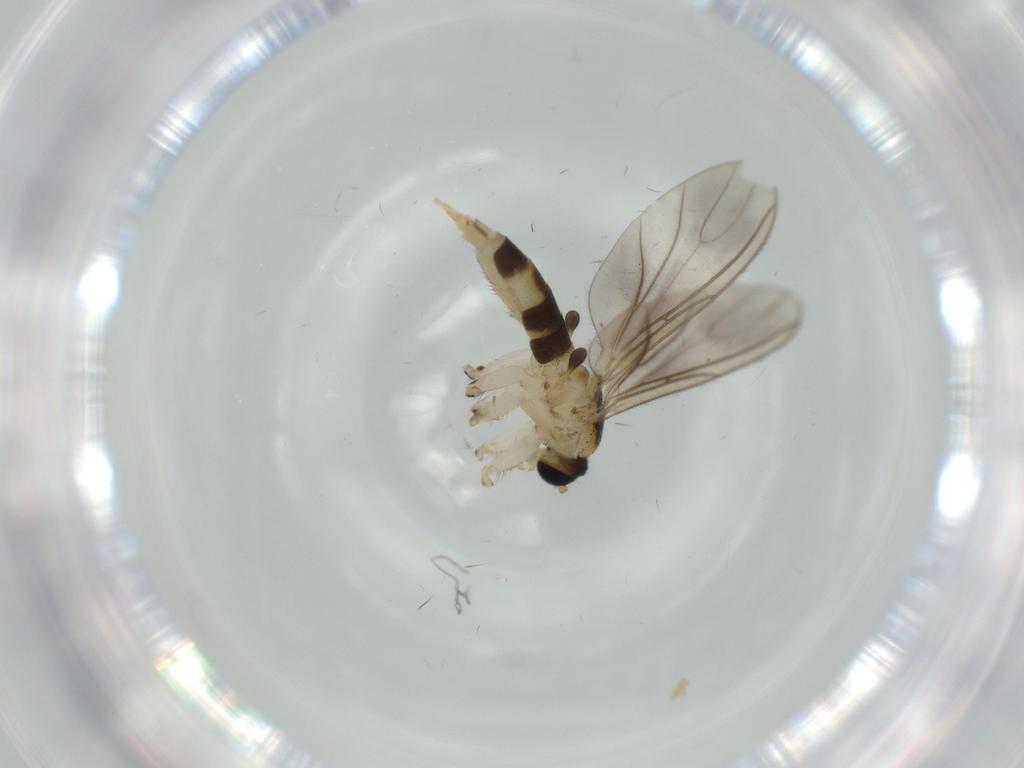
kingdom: Animalia
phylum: Arthropoda
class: Insecta
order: Diptera
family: Sciaridae
